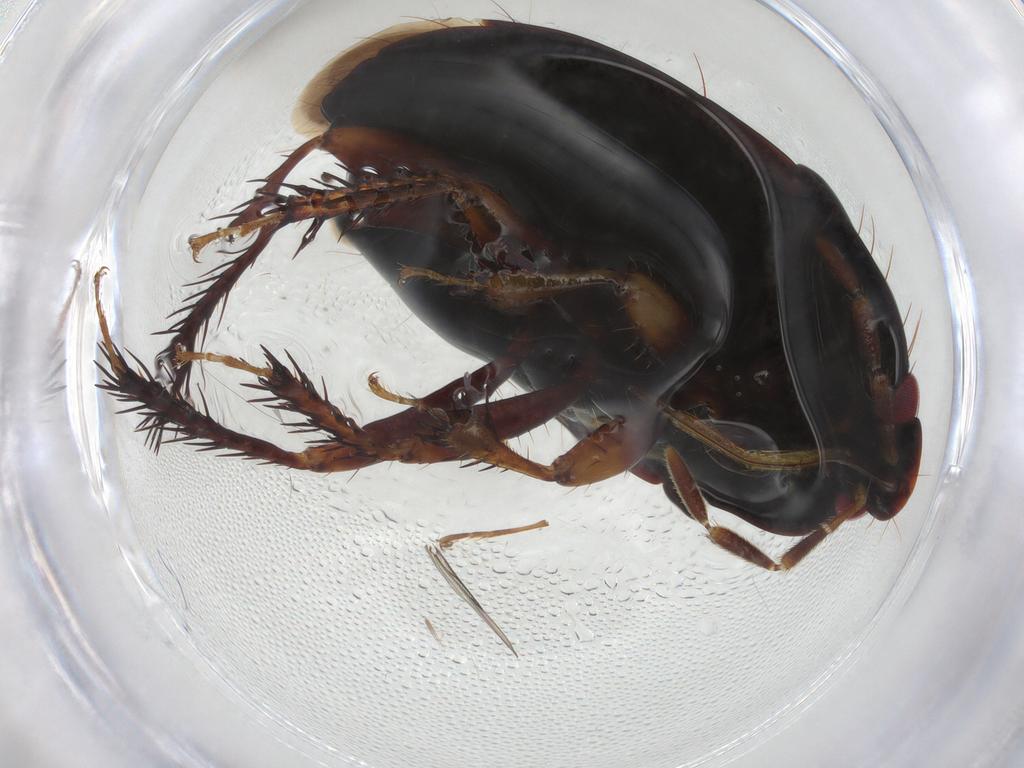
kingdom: Animalia
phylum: Arthropoda
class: Insecta
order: Hemiptera
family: Cydnidae
